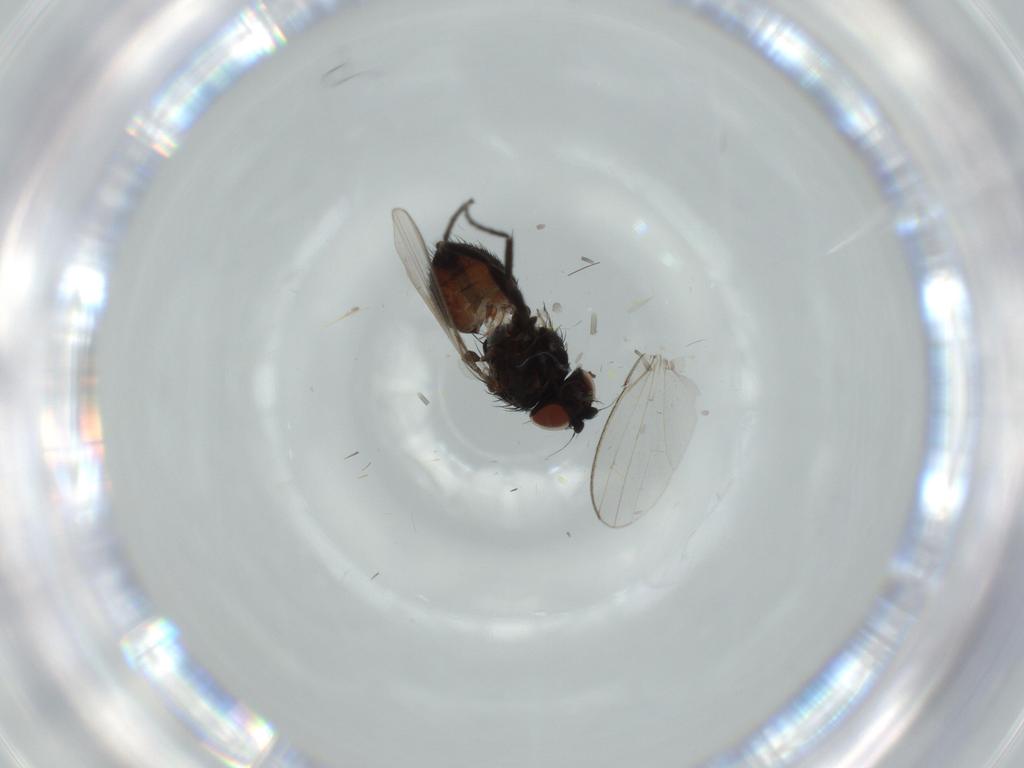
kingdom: Animalia
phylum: Arthropoda
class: Insecta
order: Diptera
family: Milichiidae
